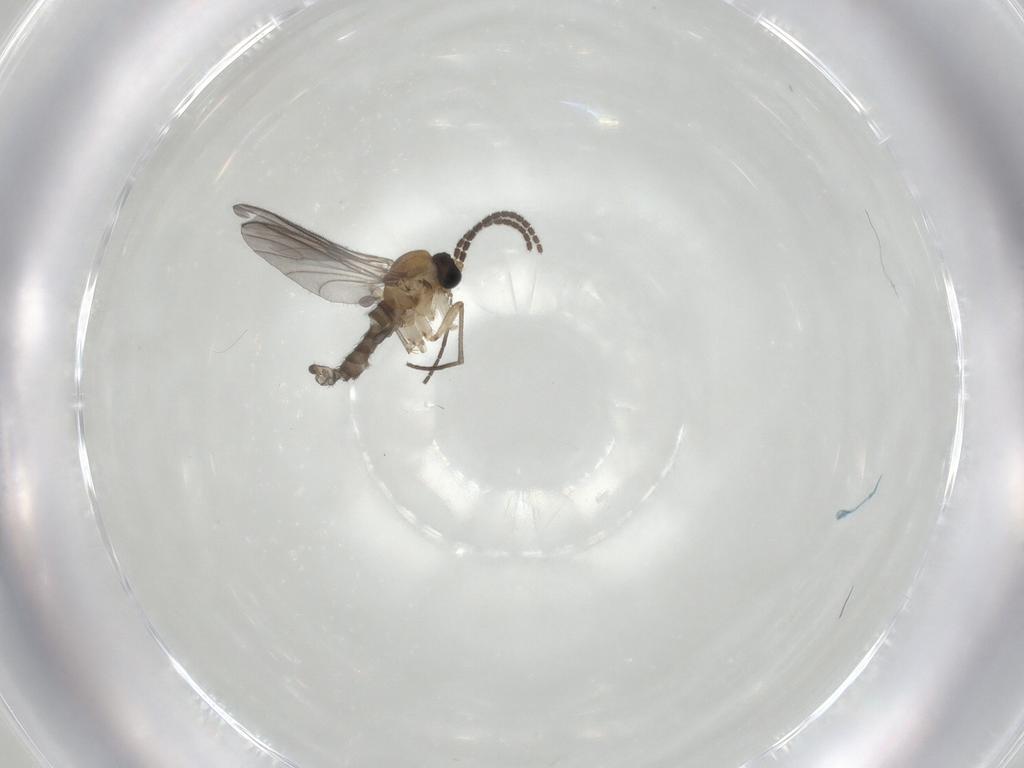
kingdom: Animalia
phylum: Arthropoda
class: Insecta
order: Diptera
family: Sciaridae
